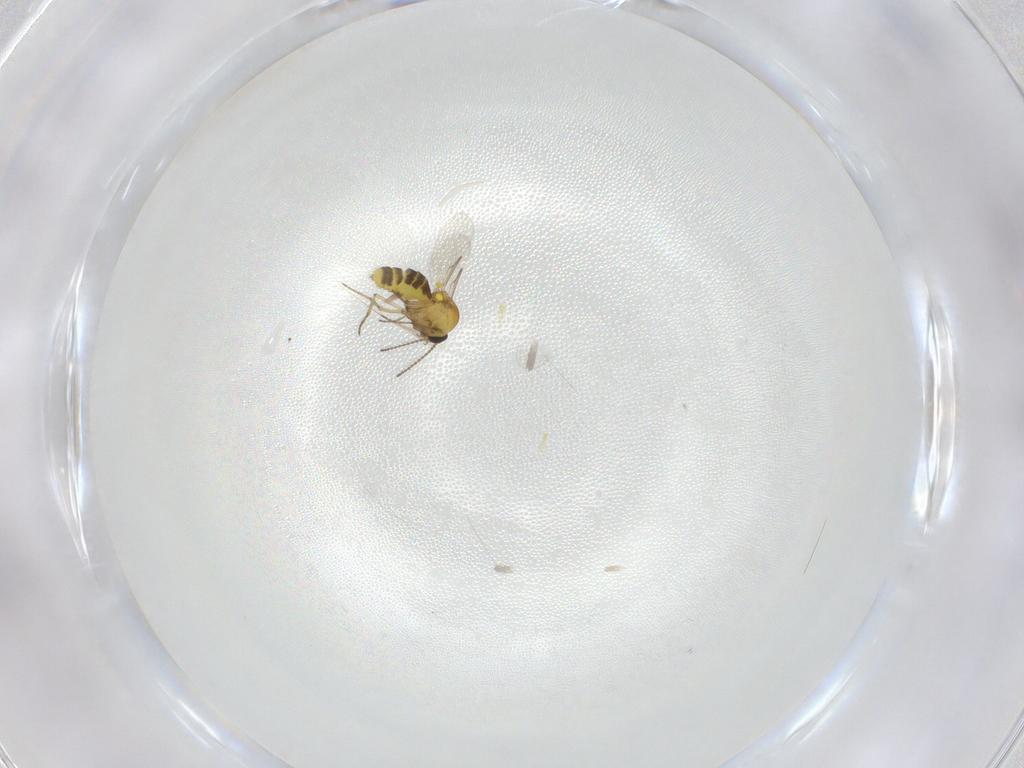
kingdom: Animalia
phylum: Arthropoda
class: Insecta
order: Diptera
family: Ceratopogonidae
